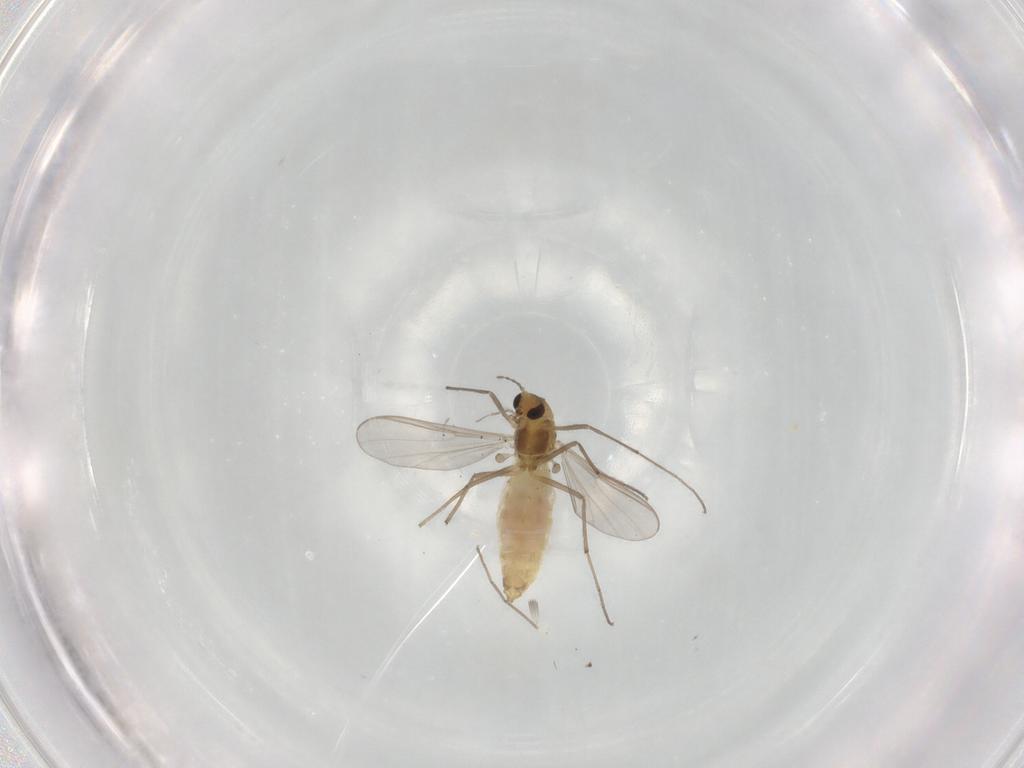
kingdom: Animalia
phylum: Arthropoda
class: Insecta
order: Diptera
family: Chironomidae
